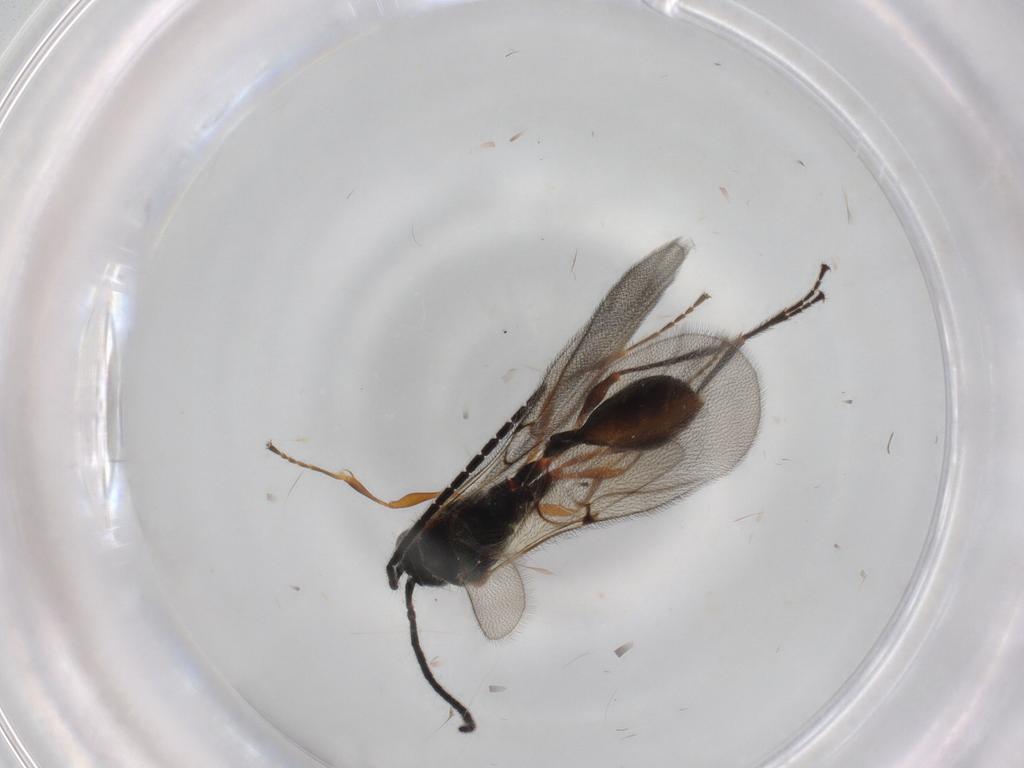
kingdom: Animalia
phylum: Arthropoda
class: Insecta
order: Hymenoptera
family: Diapriidae
